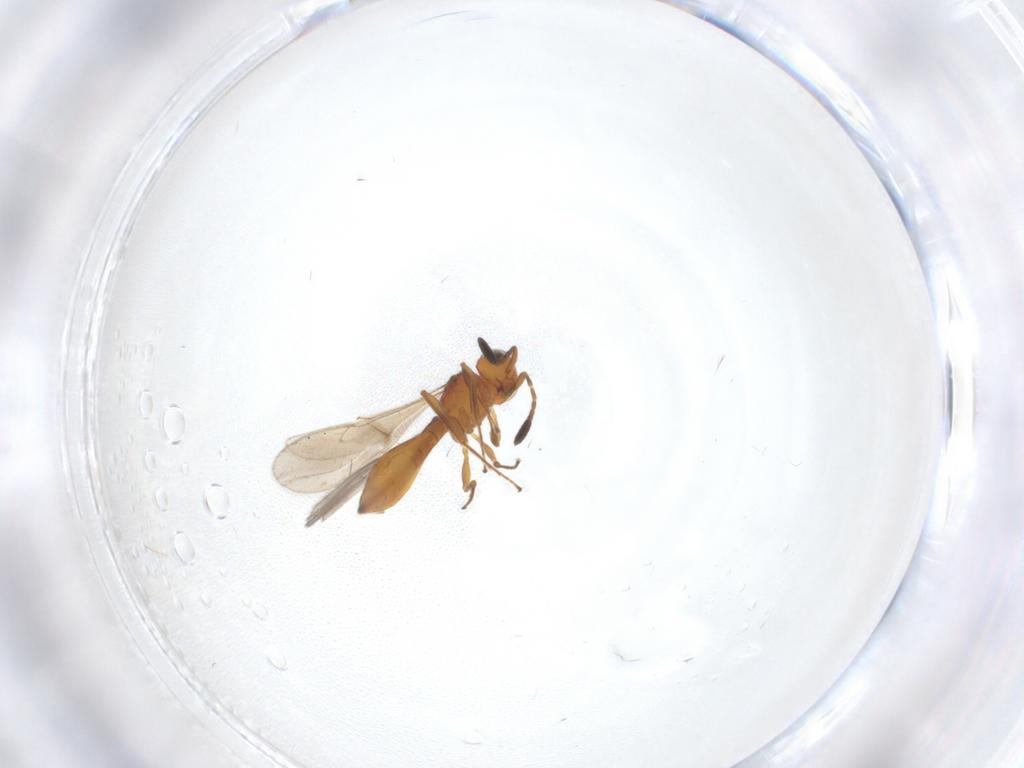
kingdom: Animalia
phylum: Arthropoda
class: Insecta
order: Hymenoptera
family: Scelionidae
